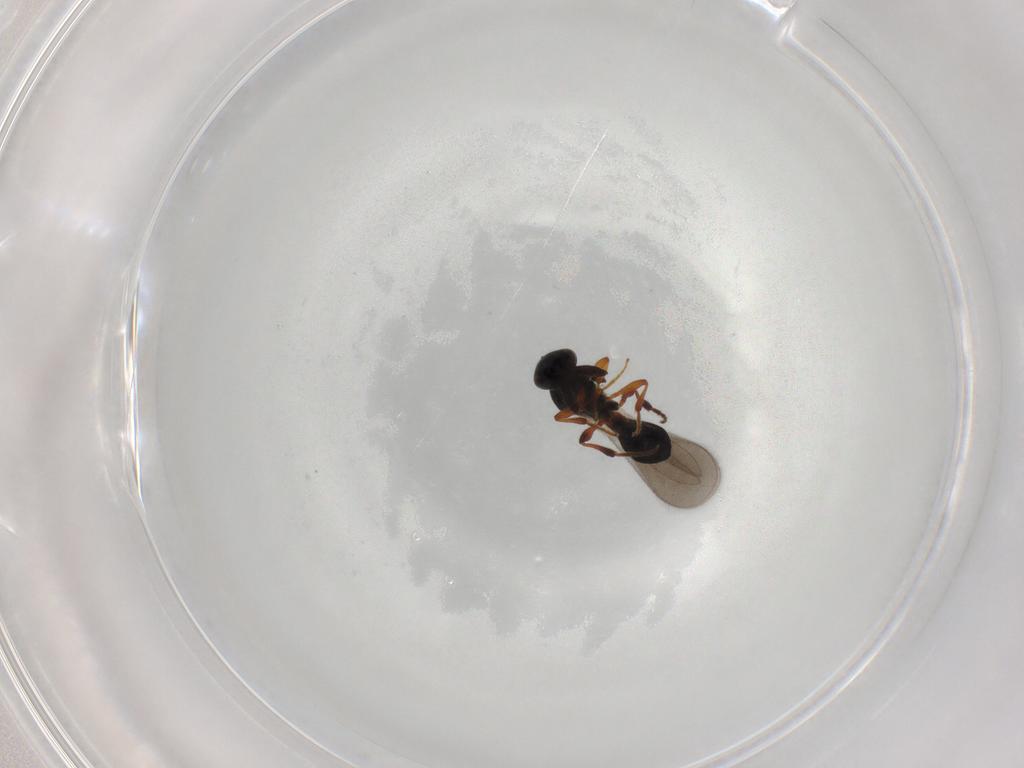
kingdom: Animalia
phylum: Arthropoda
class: Insecta
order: Hymenoptera
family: Platygastridae
